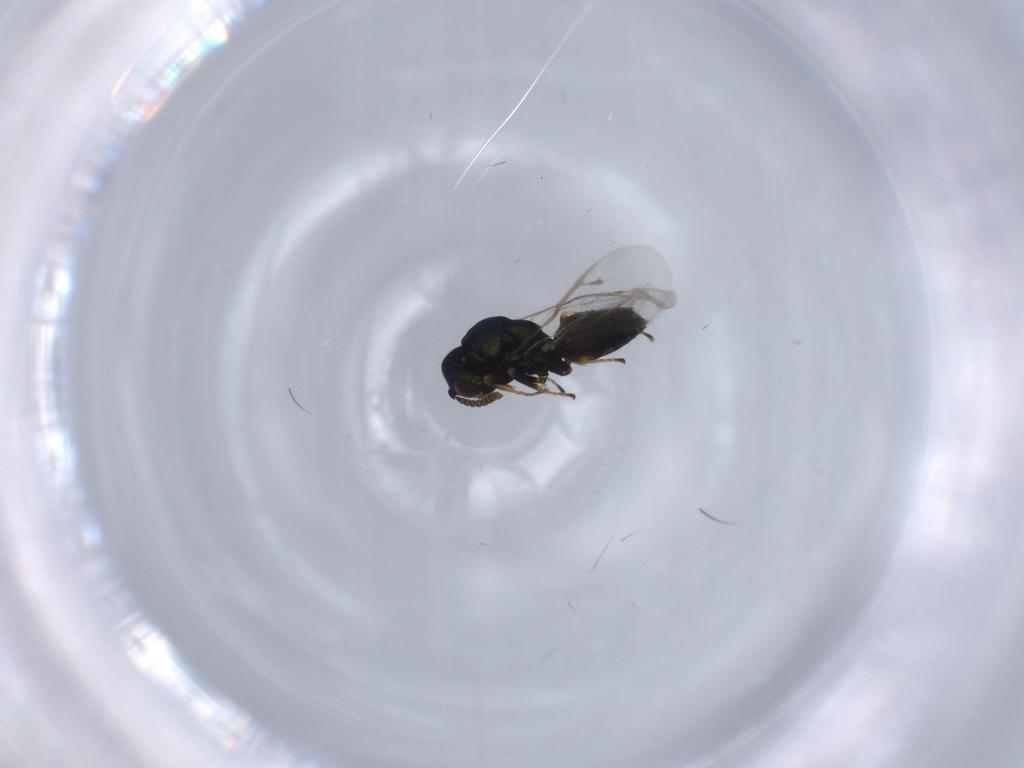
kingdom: Animalia
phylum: Arthropoda
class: Insecta
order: Hymenoptera
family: Pteromalidae
